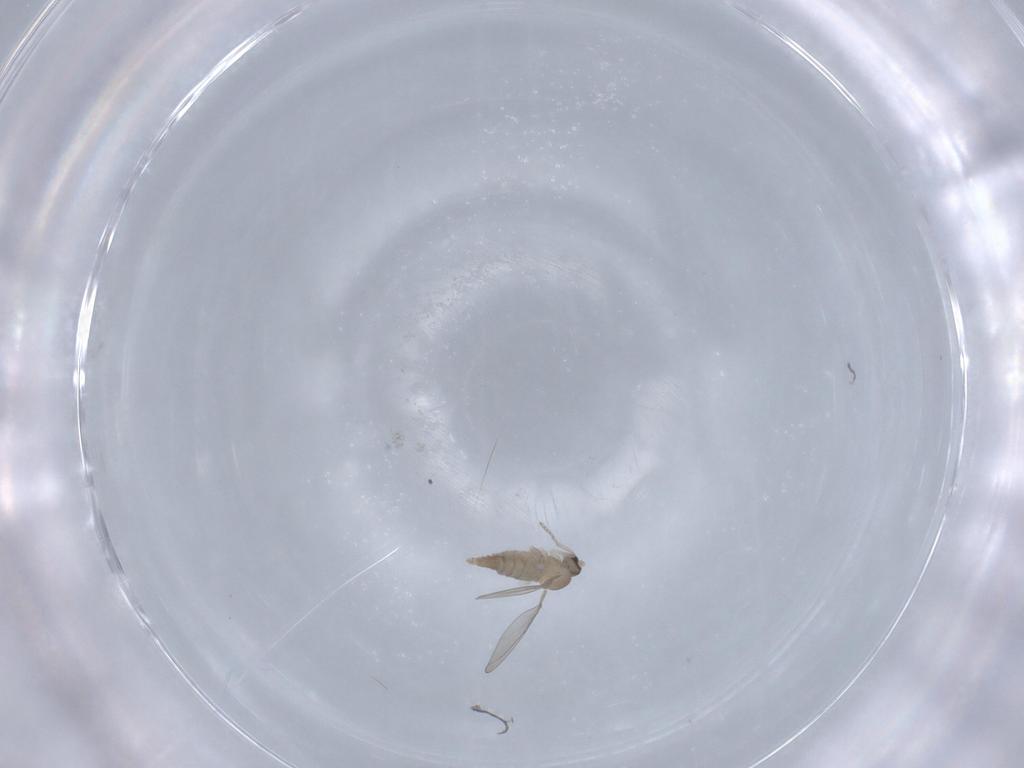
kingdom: Animalia
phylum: Arthropoda
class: Insecta
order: Diptera
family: Cecidomyiidae
